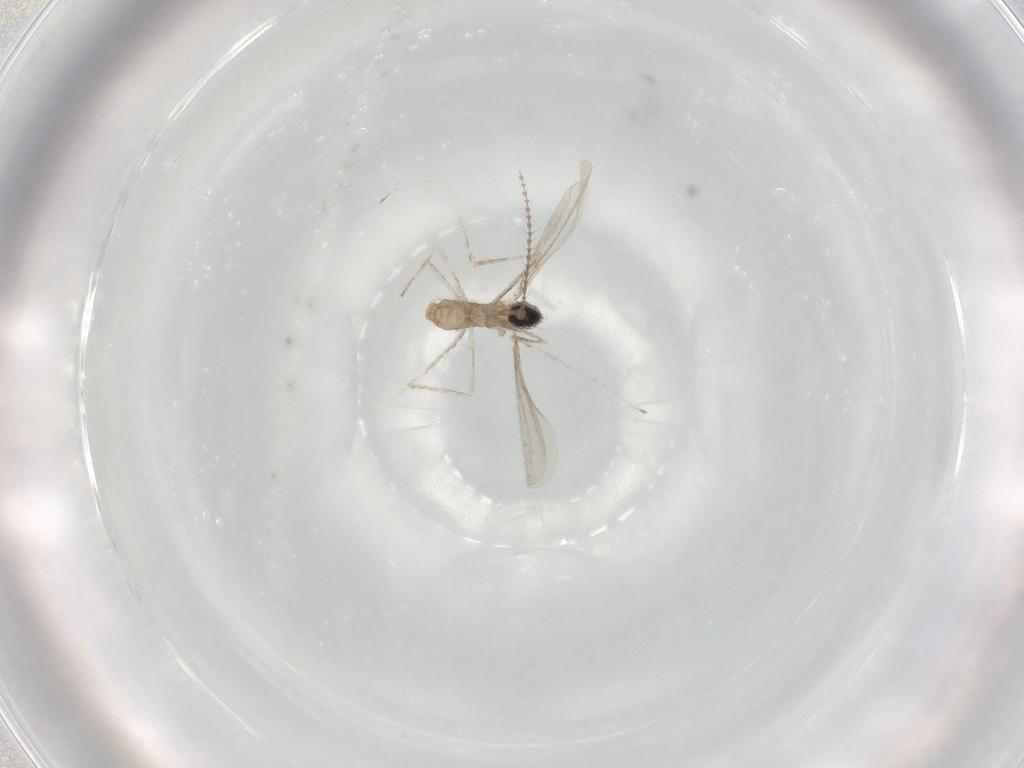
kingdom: Animalia
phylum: Arthropoda
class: Insecta
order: Diptera
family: Cecidomyiidae
